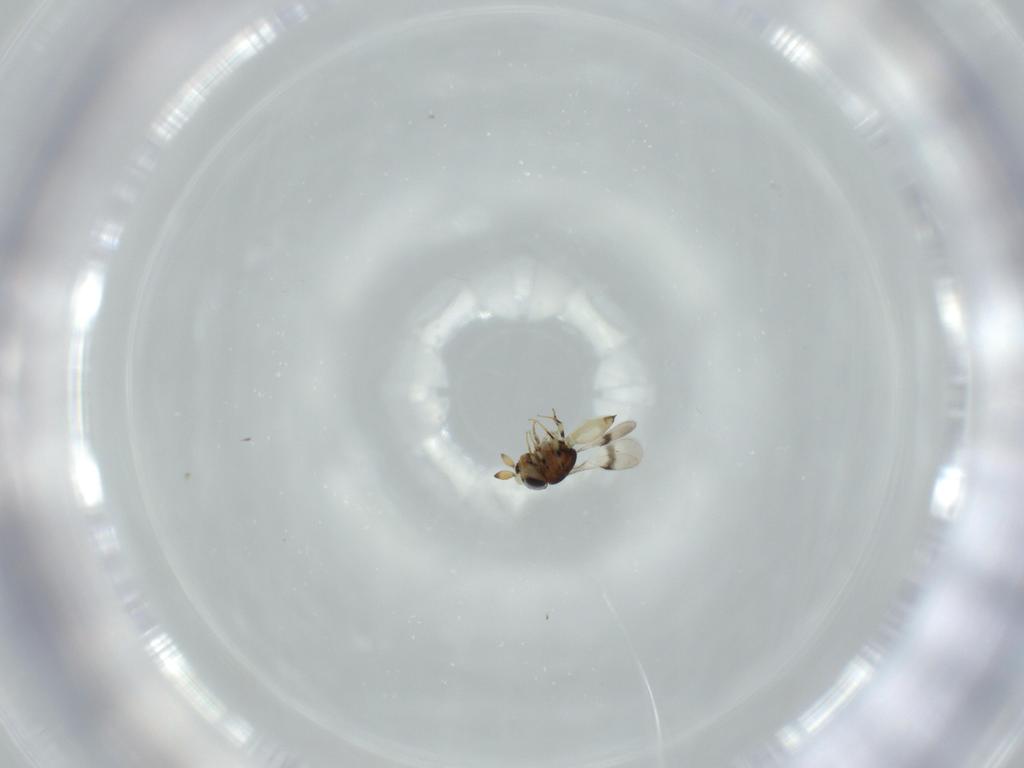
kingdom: Animalia
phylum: Arthropoda
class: Insecta
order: Hymenoptera
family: Scelionidae
